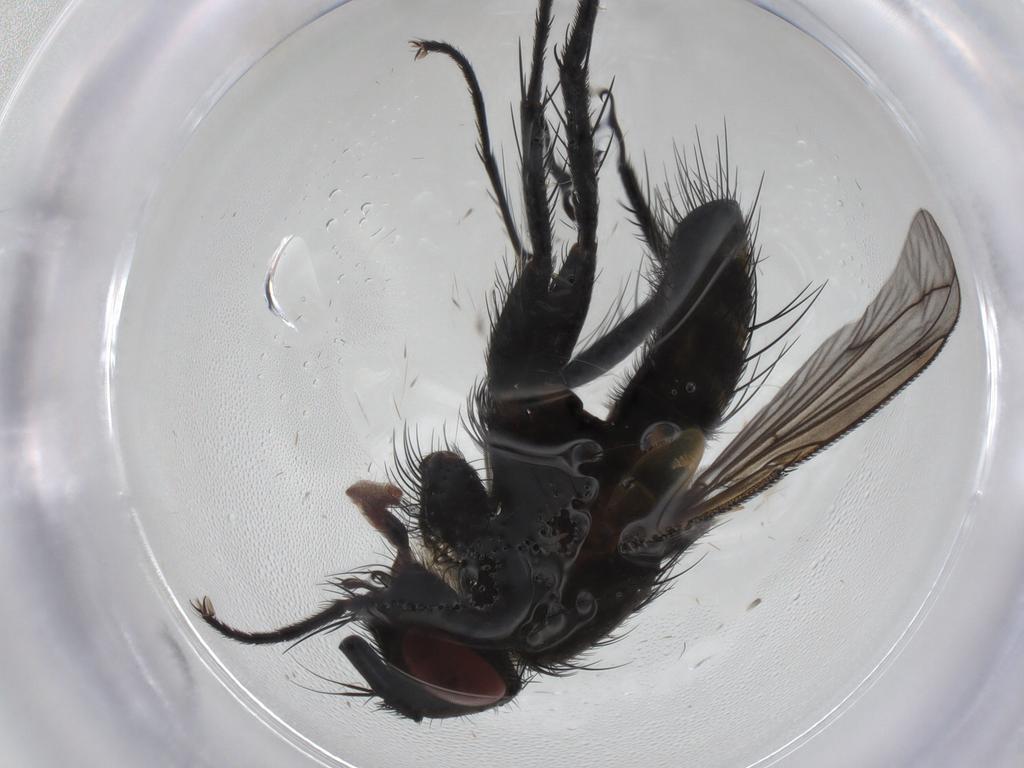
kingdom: Animalia
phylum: Arthropoda
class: Insecta
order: Diptera
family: Tachinidae
